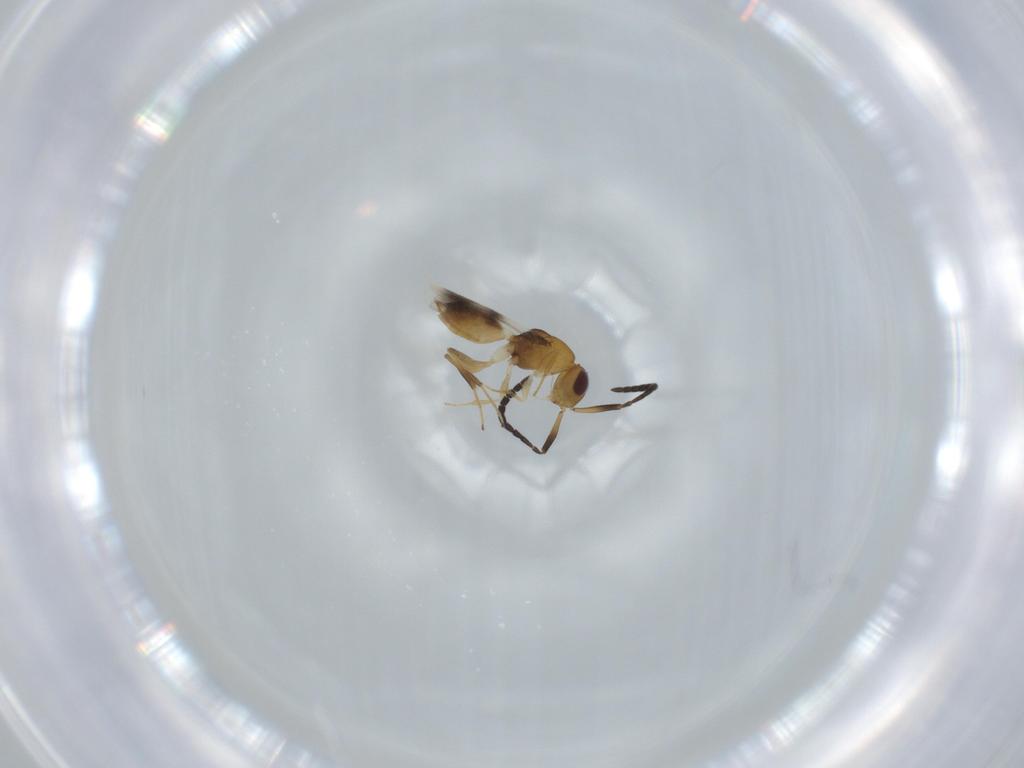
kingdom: Animalia
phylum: Arthropoda
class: Insecta
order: Hymenoptera
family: Megaspilidae
